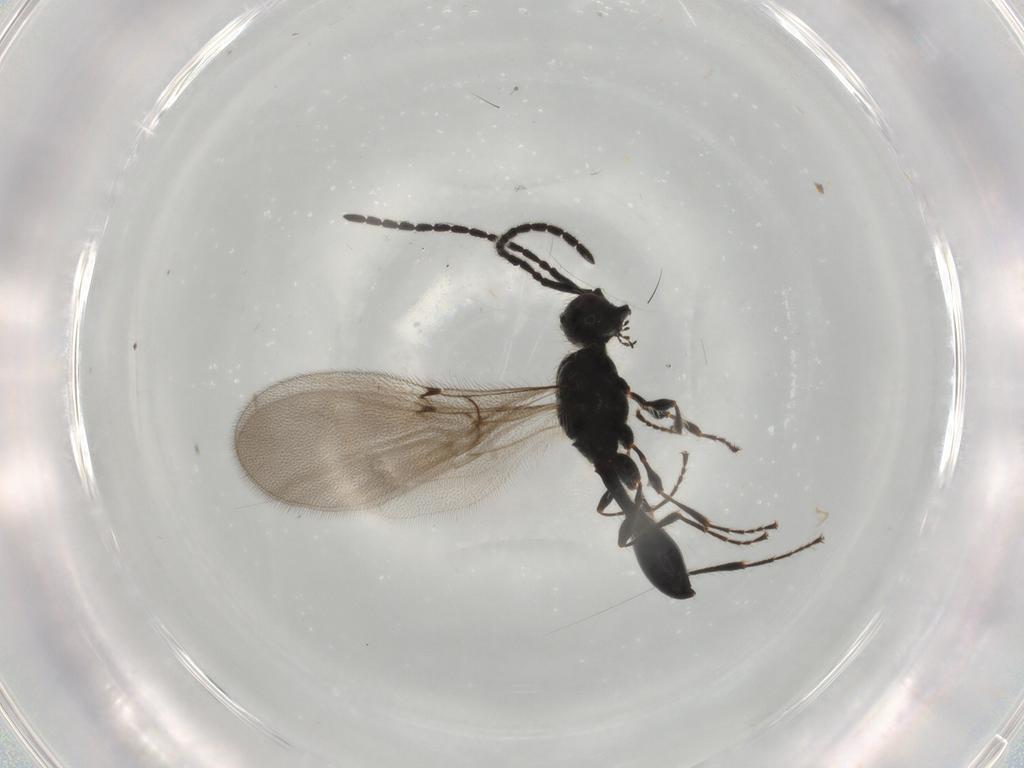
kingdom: Animalia
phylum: Arthropoda
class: Insecta
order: Hymenoptera
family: Diapriidae
